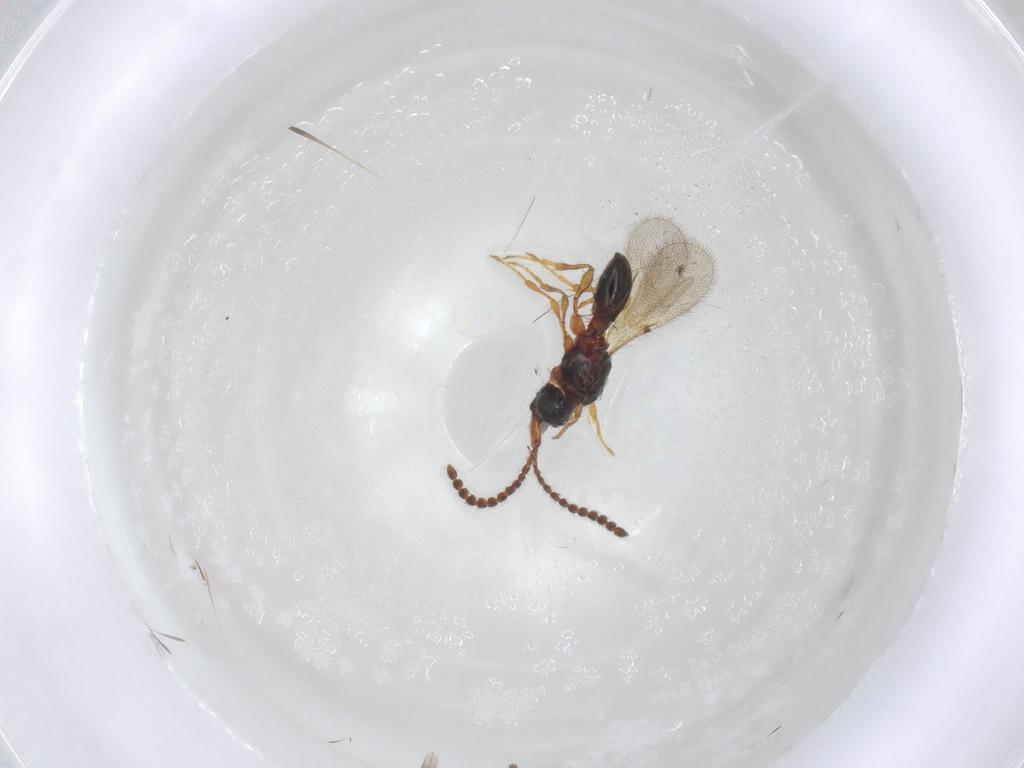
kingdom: Animalia
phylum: Arthropoda
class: Insecta
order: Hymenoptera
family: Diapriidae
